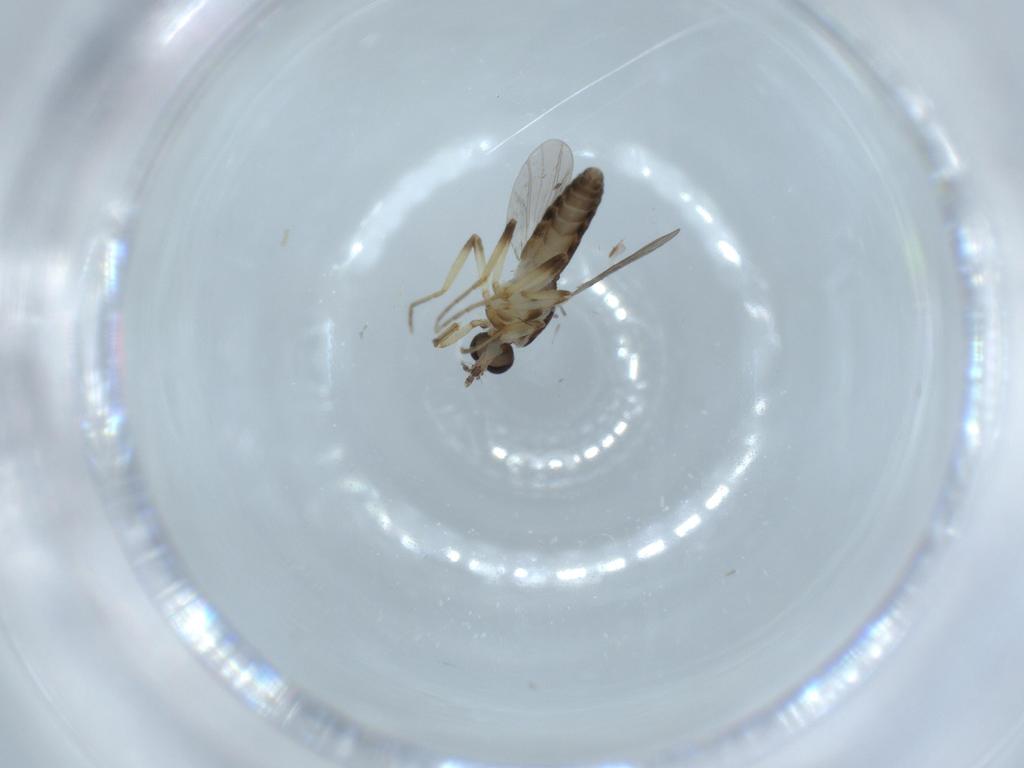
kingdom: Animalia
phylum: Arthropoda
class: Insecta
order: Diptera
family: Ceratopogonidae
